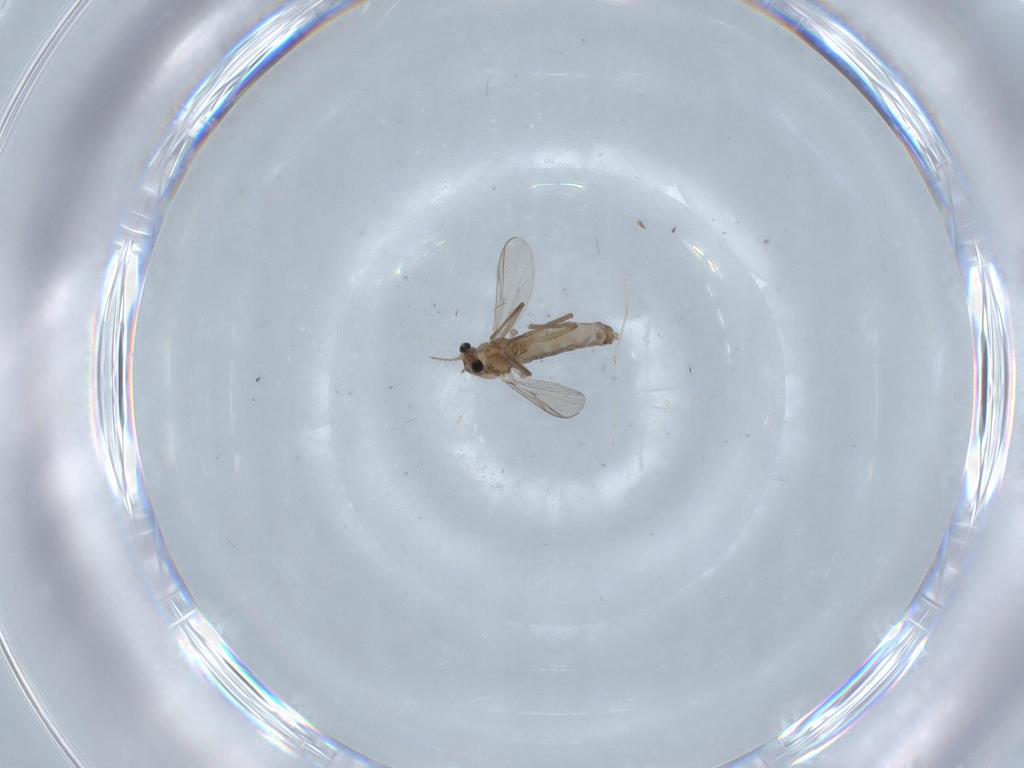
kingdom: Animalia
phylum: Arthropoda
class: Insecta
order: Diptera
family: Chironomidae
